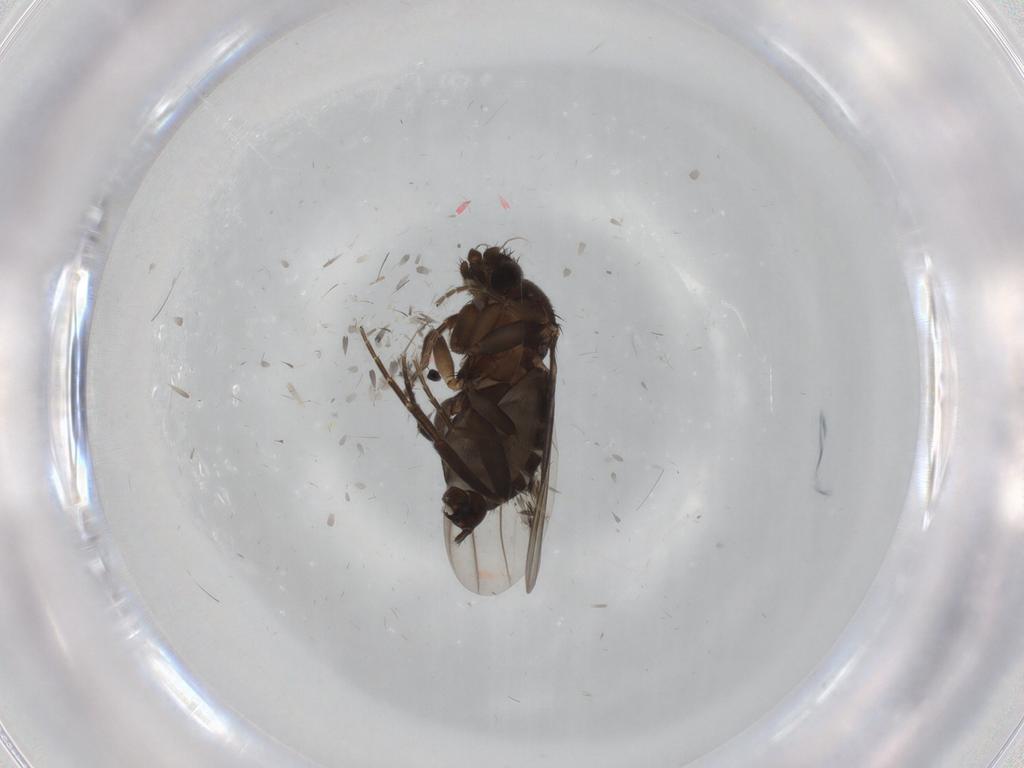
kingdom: Animalia
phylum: Arthropoda
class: Insecta
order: Diptera
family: Cecidomyiidae
